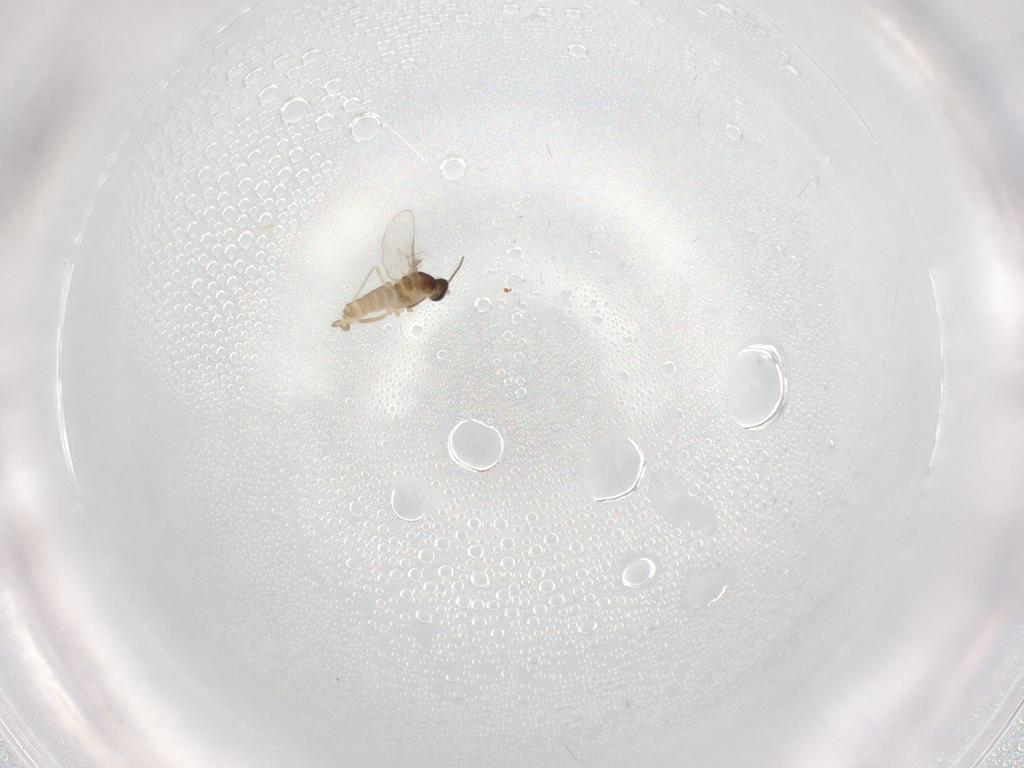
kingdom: Animalia
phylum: Arthropoda
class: Insecta
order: Diptera
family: Cecidomyiidae
